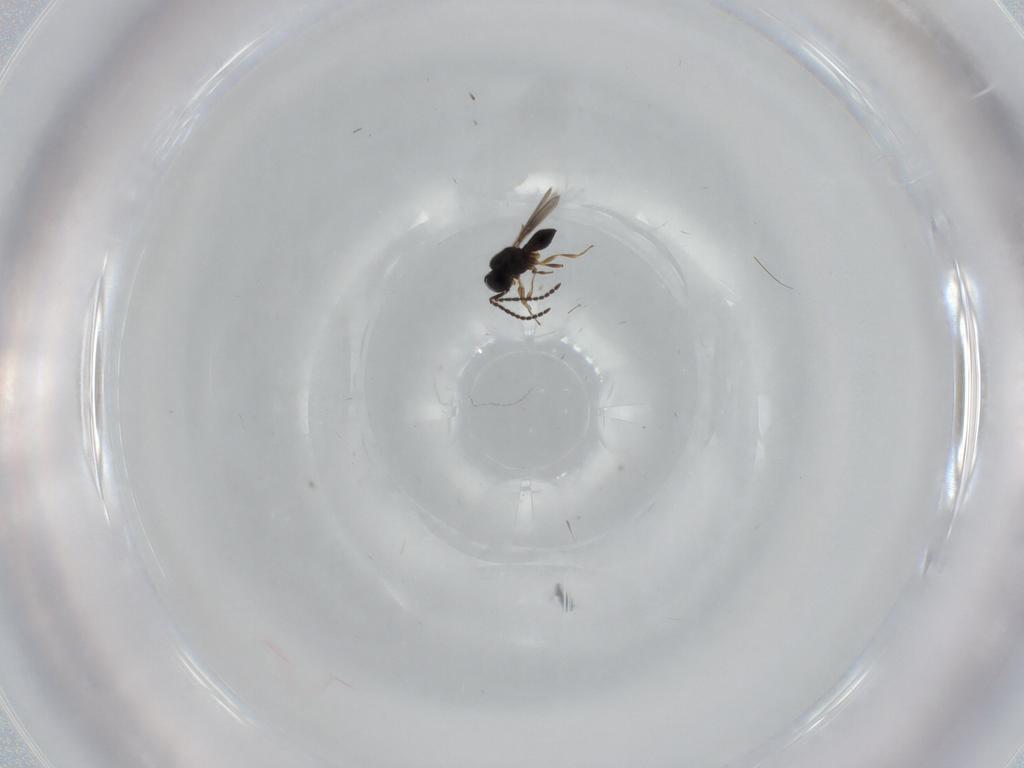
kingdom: Animalia
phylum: Arthropoda
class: Insecta
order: Hymenoptera
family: Scelionidae
